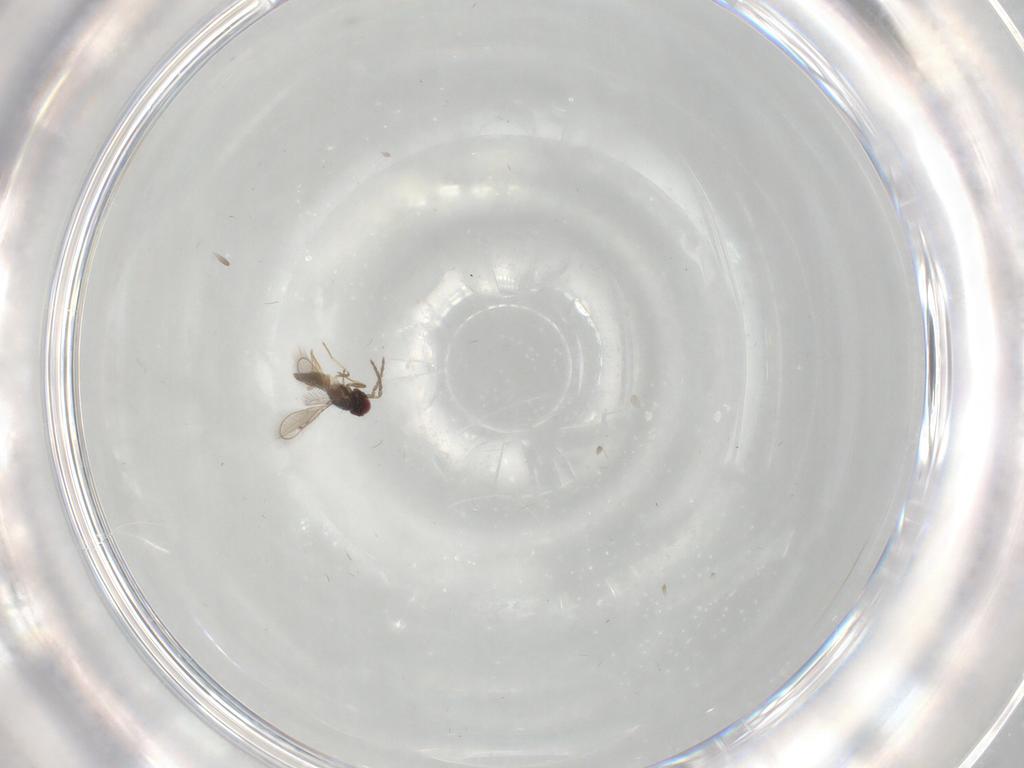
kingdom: Animalia
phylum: Arthropoda
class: Insecta
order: Hymenoptera
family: Eulophidae
